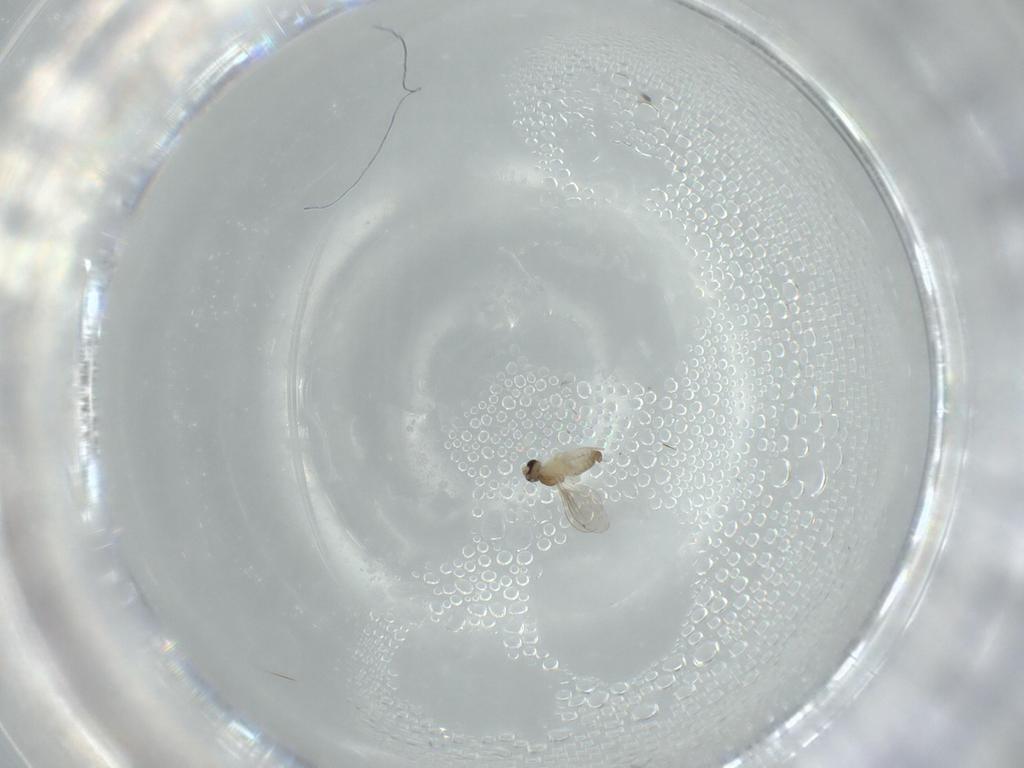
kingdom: Animalia
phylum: Arthropoda
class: Insecta
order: Diptera
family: Cecidomyiidae
